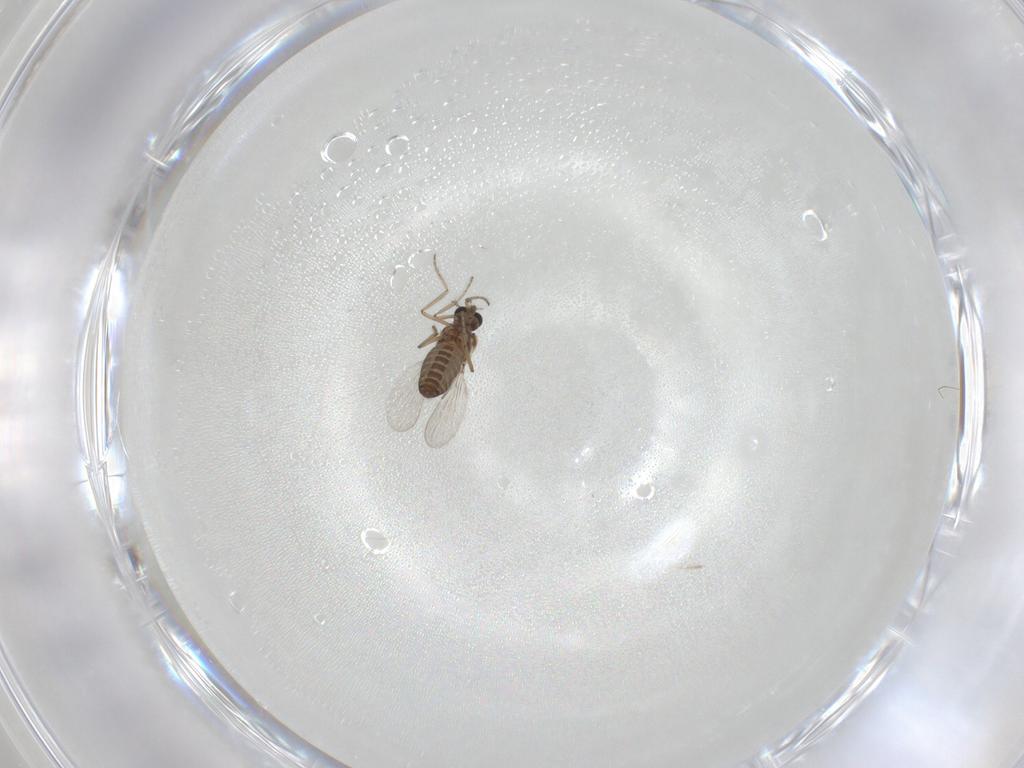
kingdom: Animalia
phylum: Arthropoda
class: Insecta
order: Diptera
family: Ceratopogonidae
